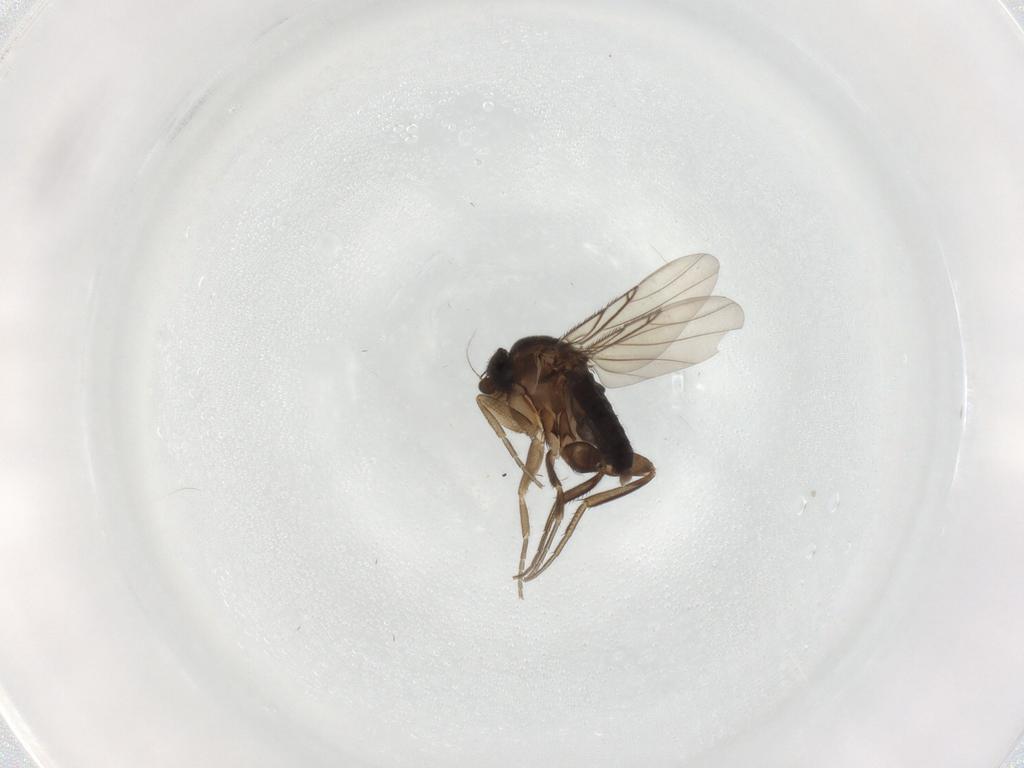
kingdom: Animalia
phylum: Arthropoda
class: Insecta
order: Diptera
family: Phoridae
